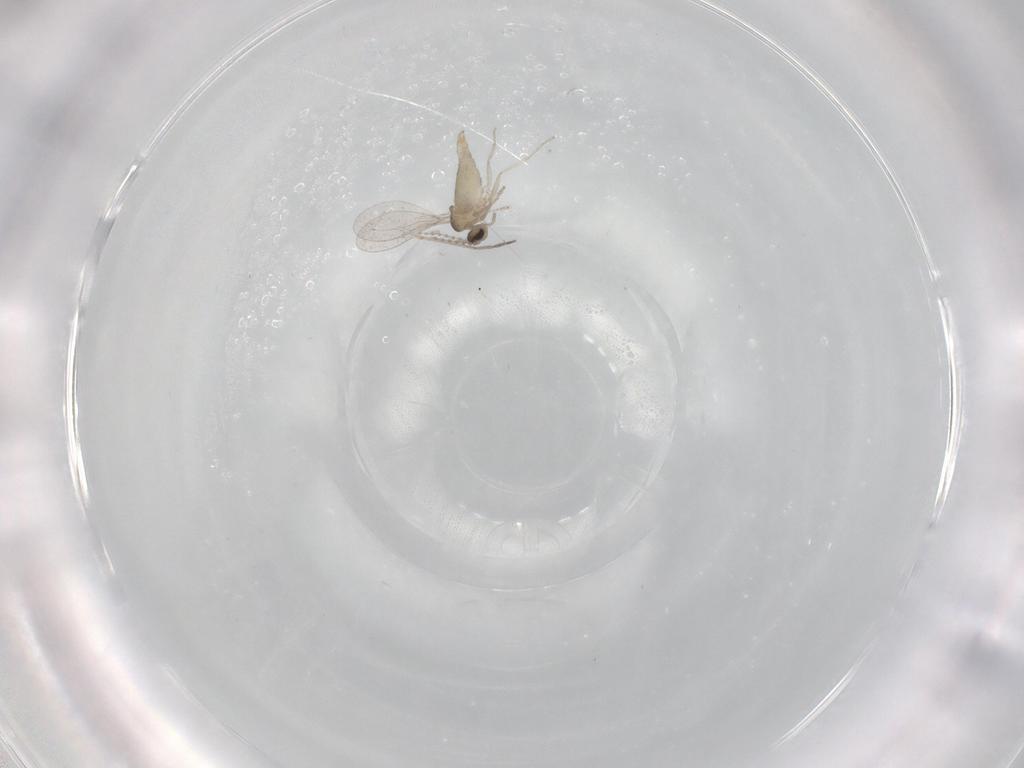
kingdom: Animalia
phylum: Arthropoda
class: Insecta
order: Diptera
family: Cecidomyiidae
